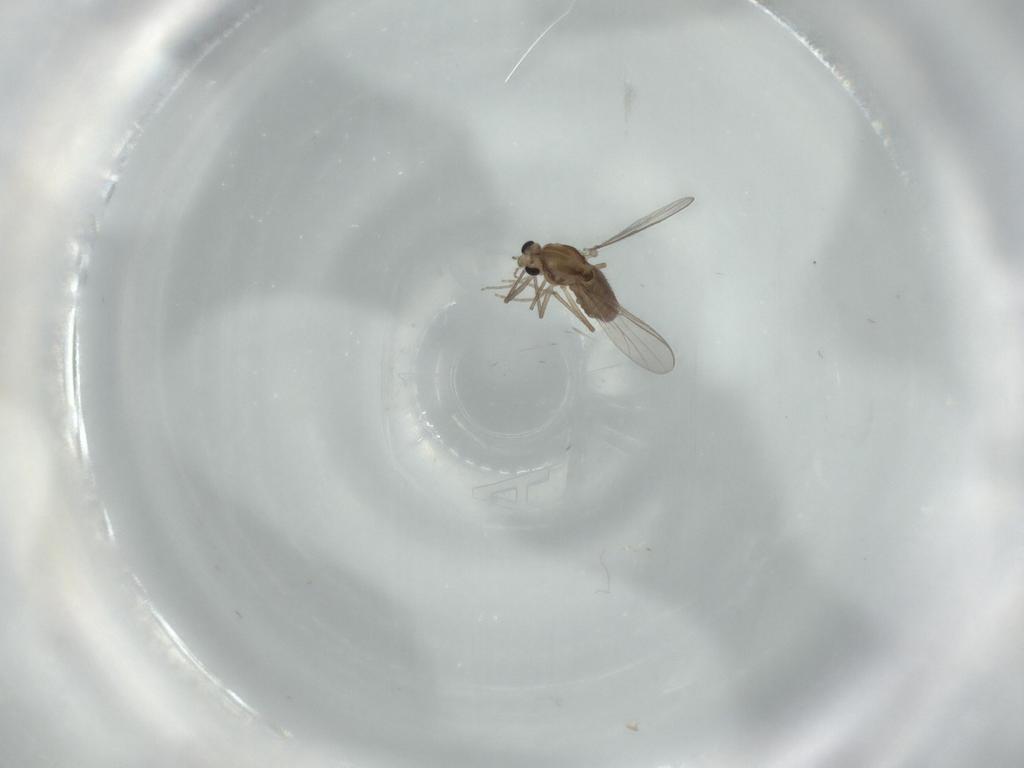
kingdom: Animalia
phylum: Arthropoda
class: Insecta
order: Diptera
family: Chironomidae
